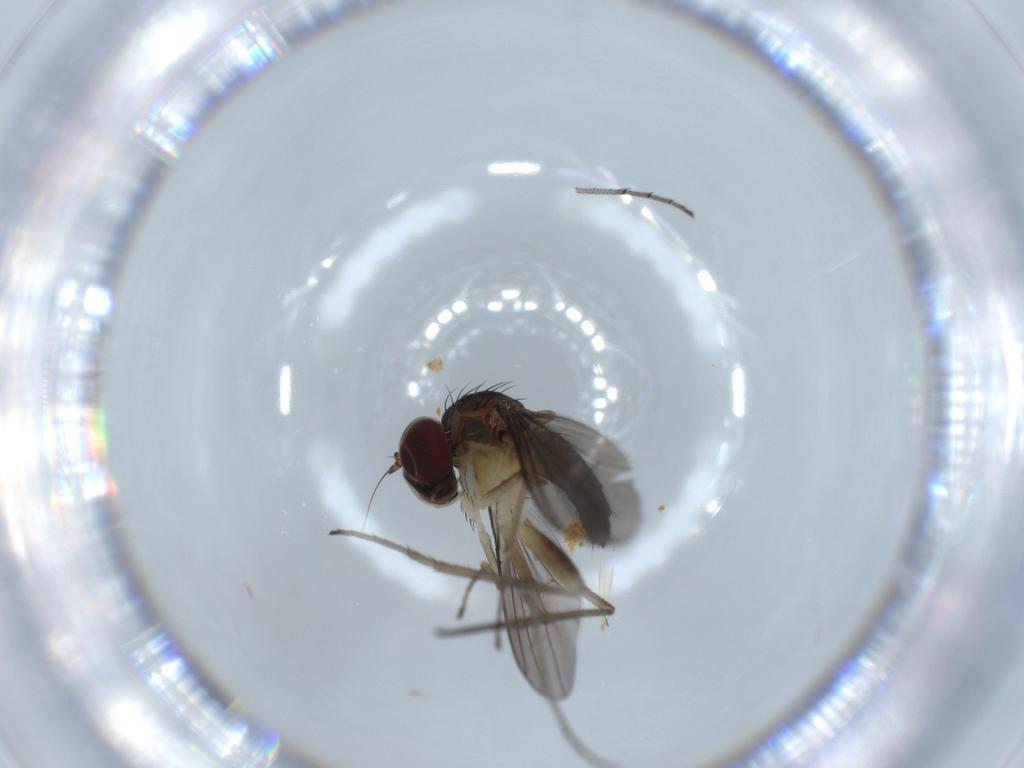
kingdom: Animalia
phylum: Arthropoda
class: Insecta
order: Diptera
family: Dolichopodidae
